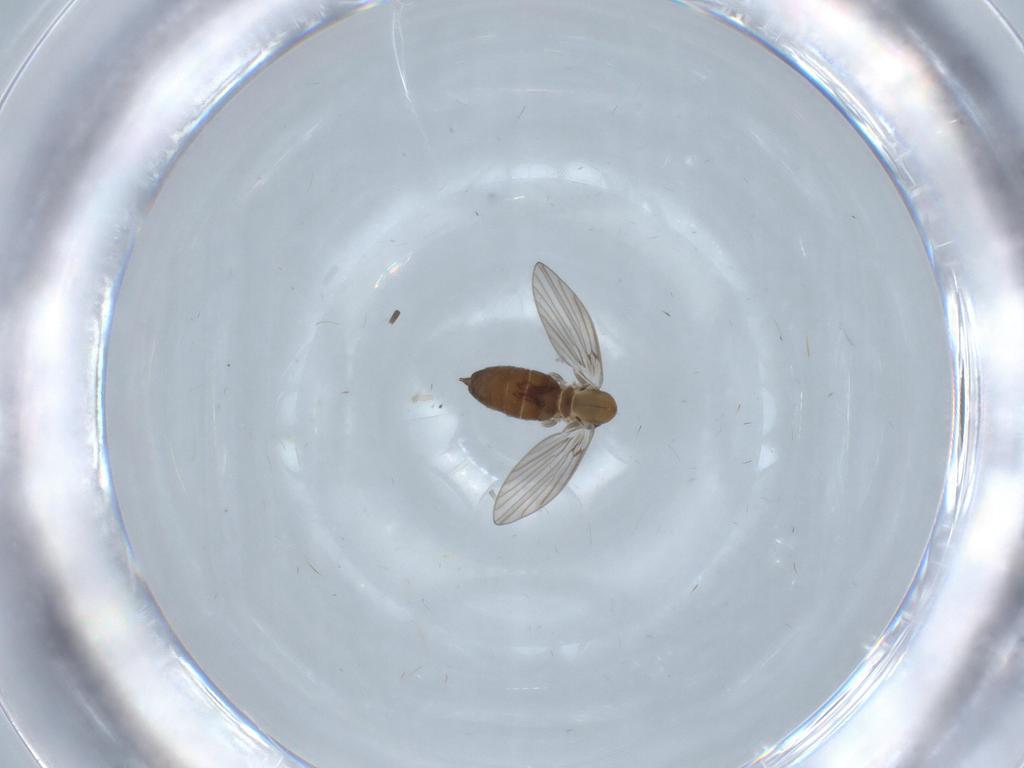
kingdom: Animalia
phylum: Arthropoda
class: Insecta
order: Diptera
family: Psychodidae
